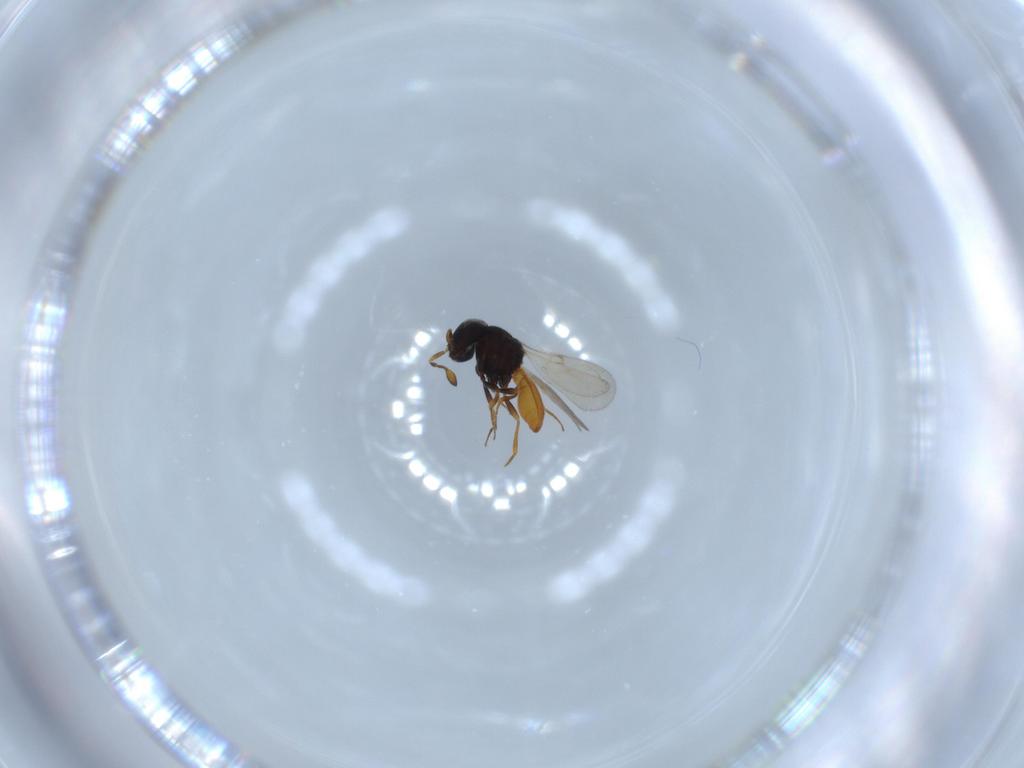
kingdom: Animalia
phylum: Arthropoda
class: Insecta
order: Hymenoptera
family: Scelionidae
